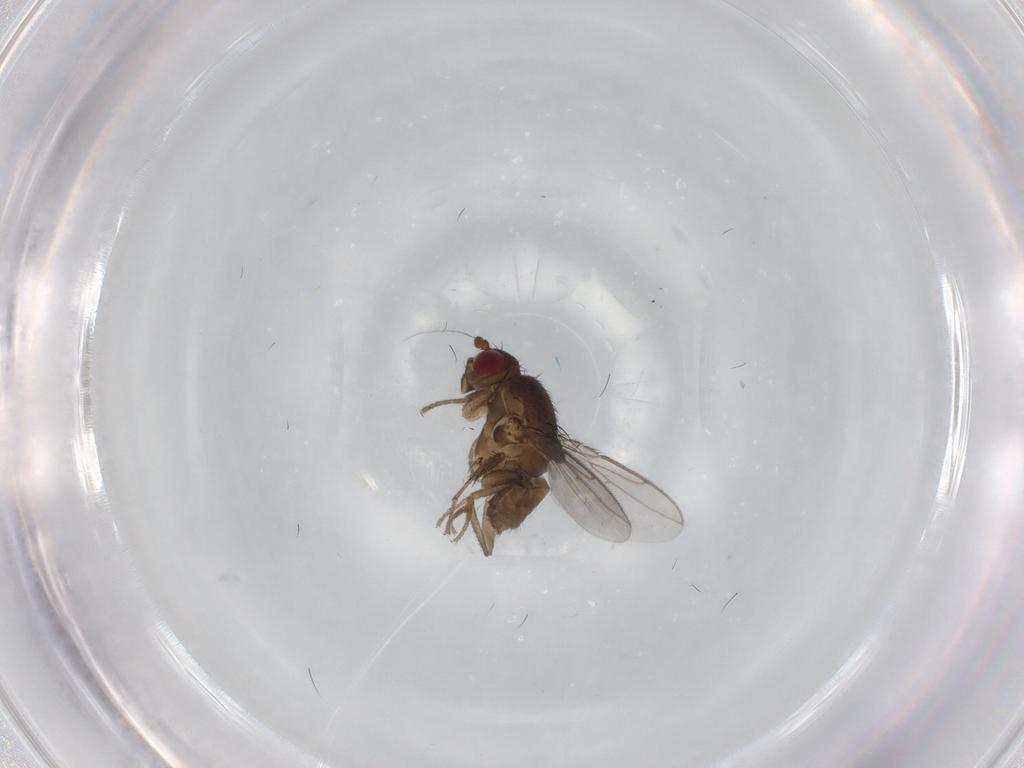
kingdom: Animalia
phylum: Arthropoda
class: Insecta
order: Diptera
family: Sphaeroceridae
